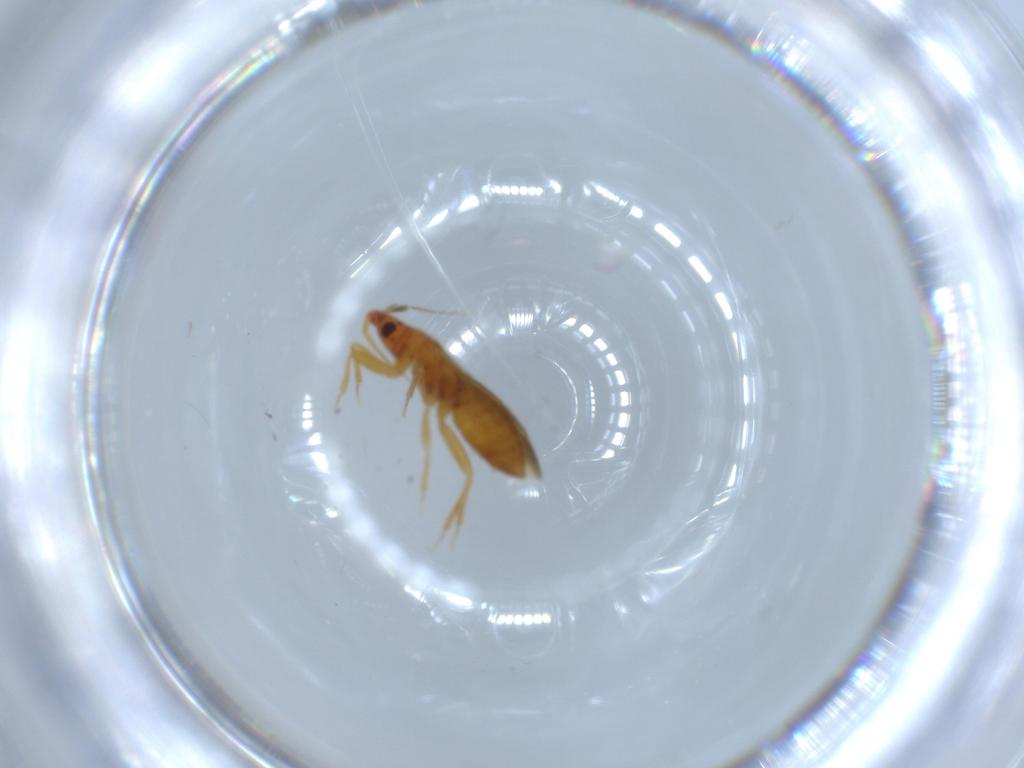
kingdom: Animalia
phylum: Arthropoda
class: Insecta
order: Hemiptera
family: Lasiochilidae
